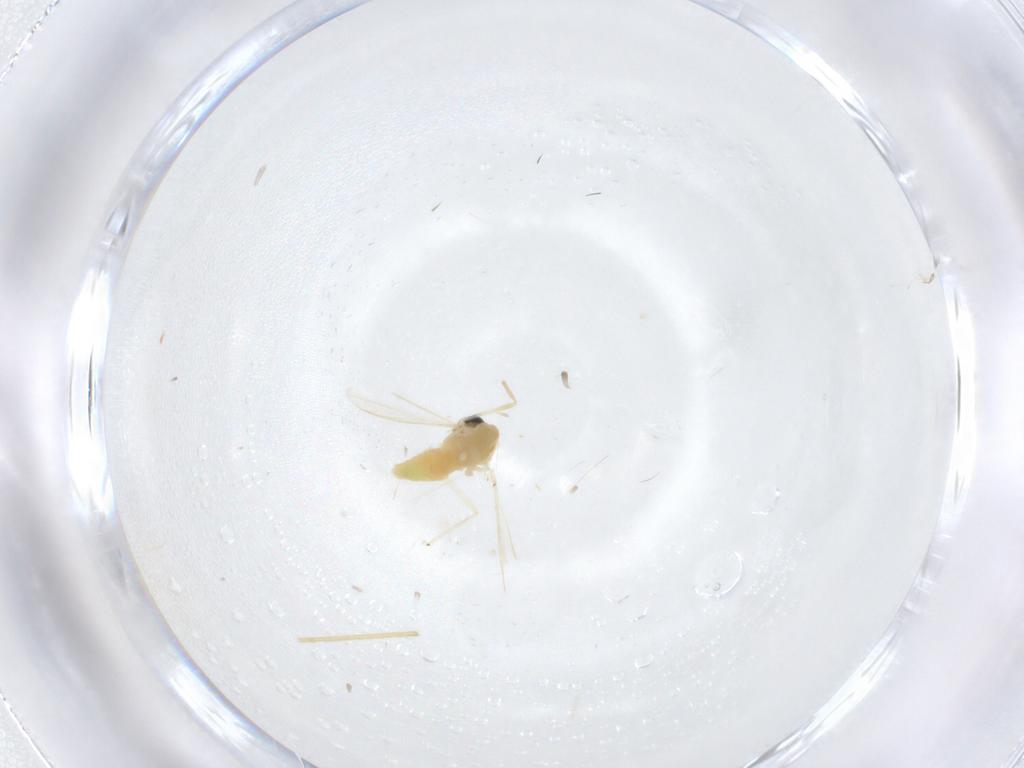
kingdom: Animalia
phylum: Arthropoda
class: Insecta
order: Diptera
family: Chironomidae
